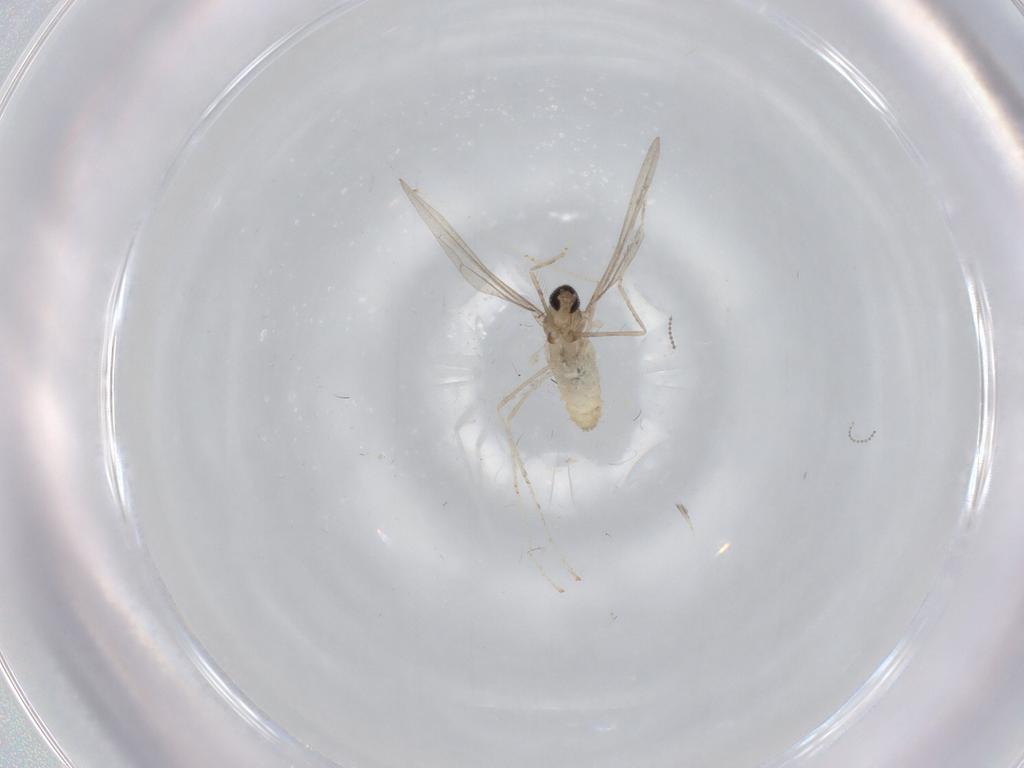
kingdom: Animalia
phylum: Arthropoda
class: Insecta
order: Diptera
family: Cecidomyiidae
